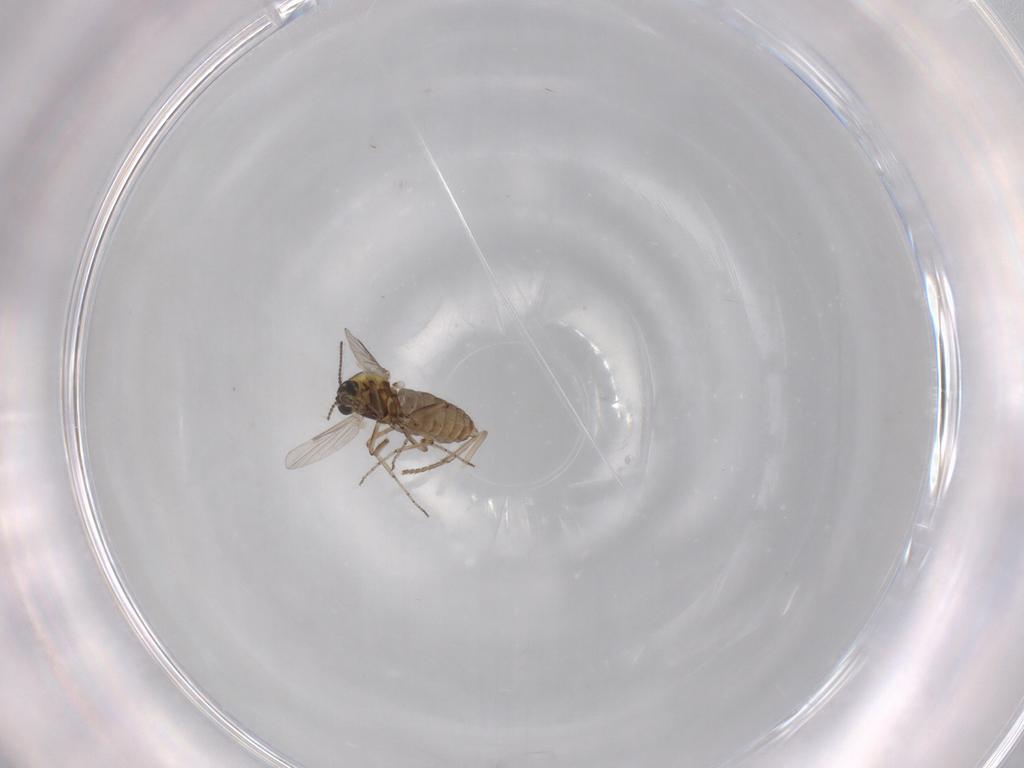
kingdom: Animalia
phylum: Arthropoda
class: Insecta
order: Diptera
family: Ceratopogonidae
